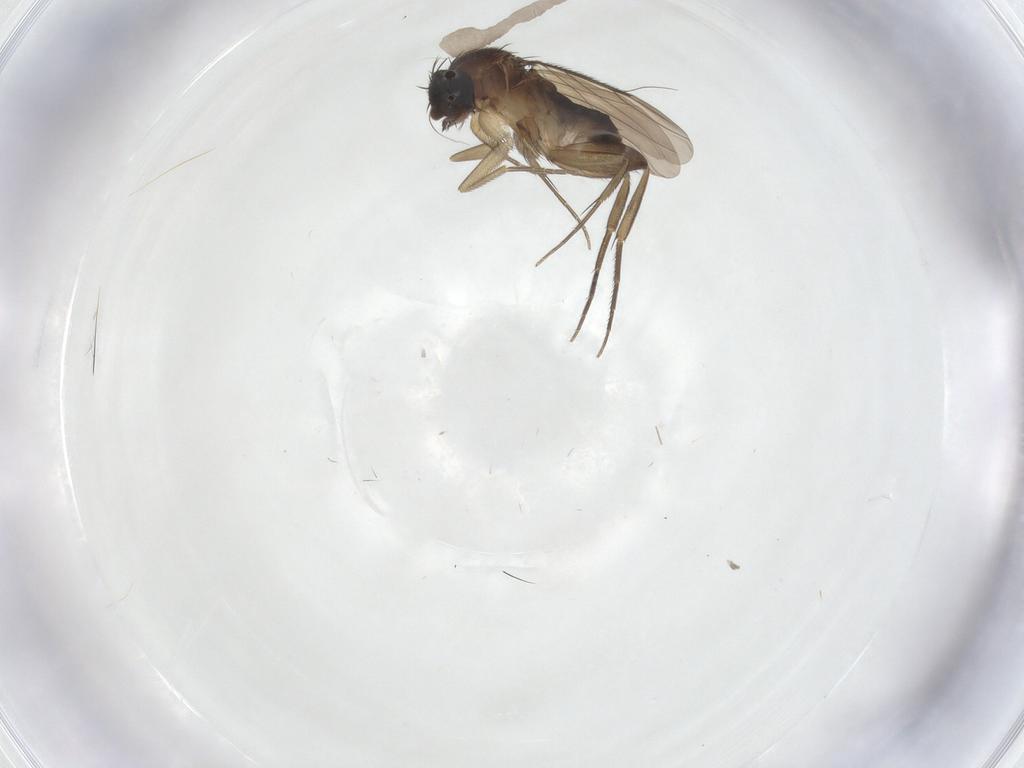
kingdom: Animalia
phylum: Arthropoda
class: Insecta
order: Diptera
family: Phoridae
